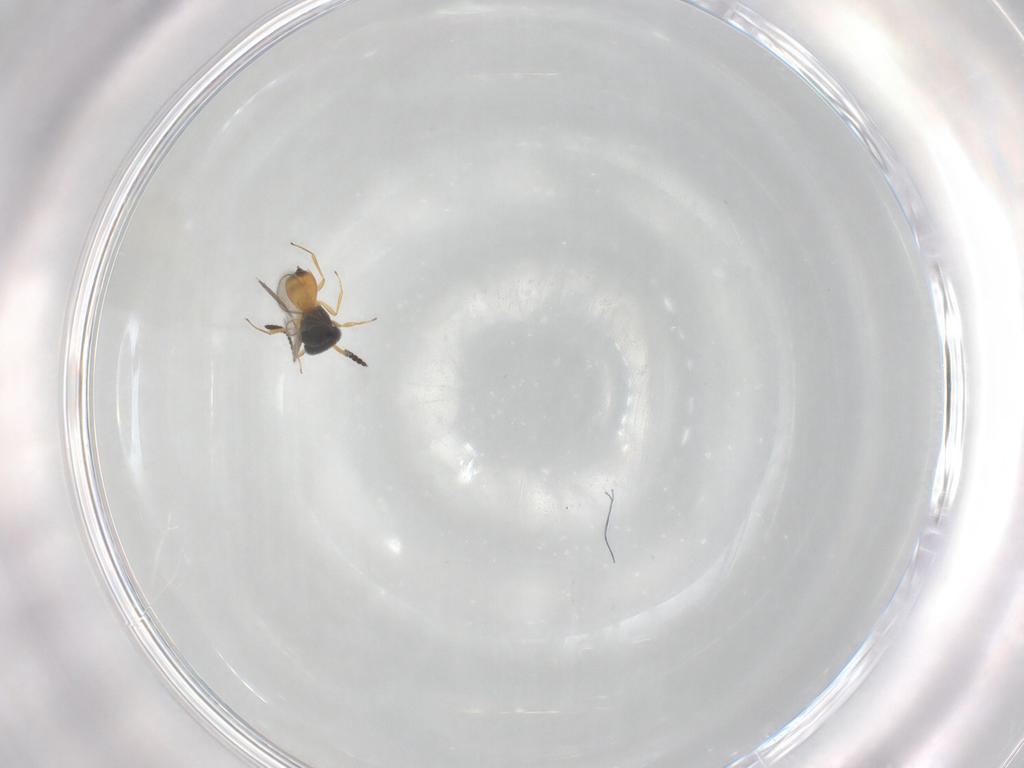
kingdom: Animalia
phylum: Arthropoda
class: Insecta
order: Hymenoptera
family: Scelionidae
